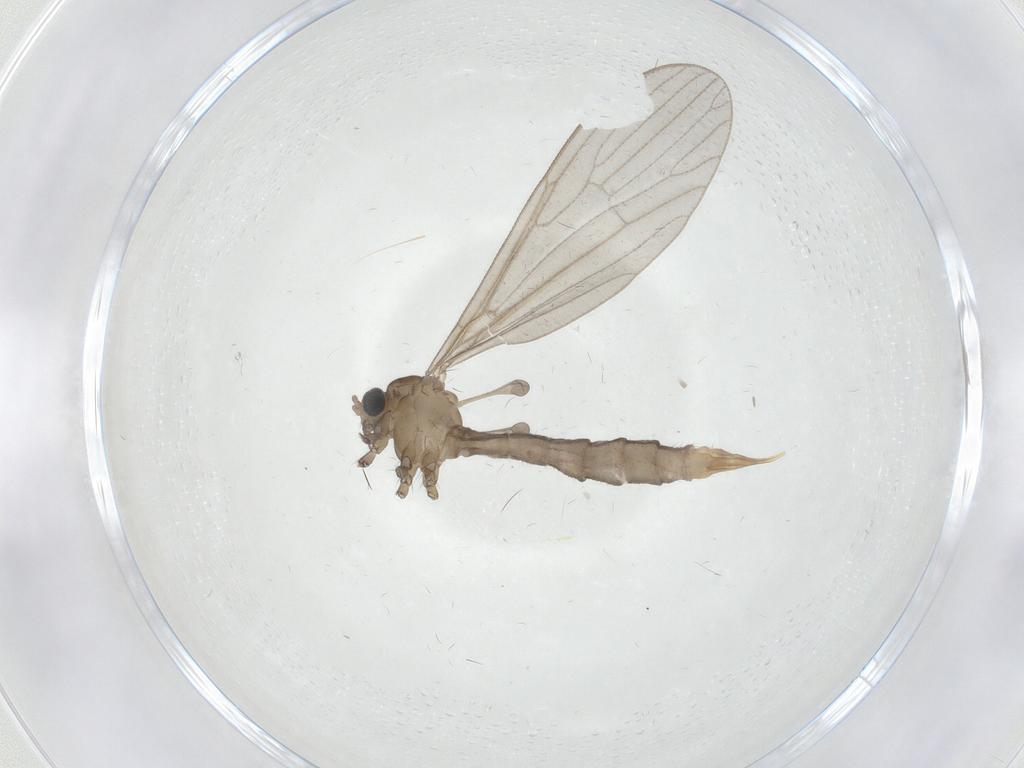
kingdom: Animalia
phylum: Arthropoda
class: Insecta
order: Diptera
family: Limoniidae
